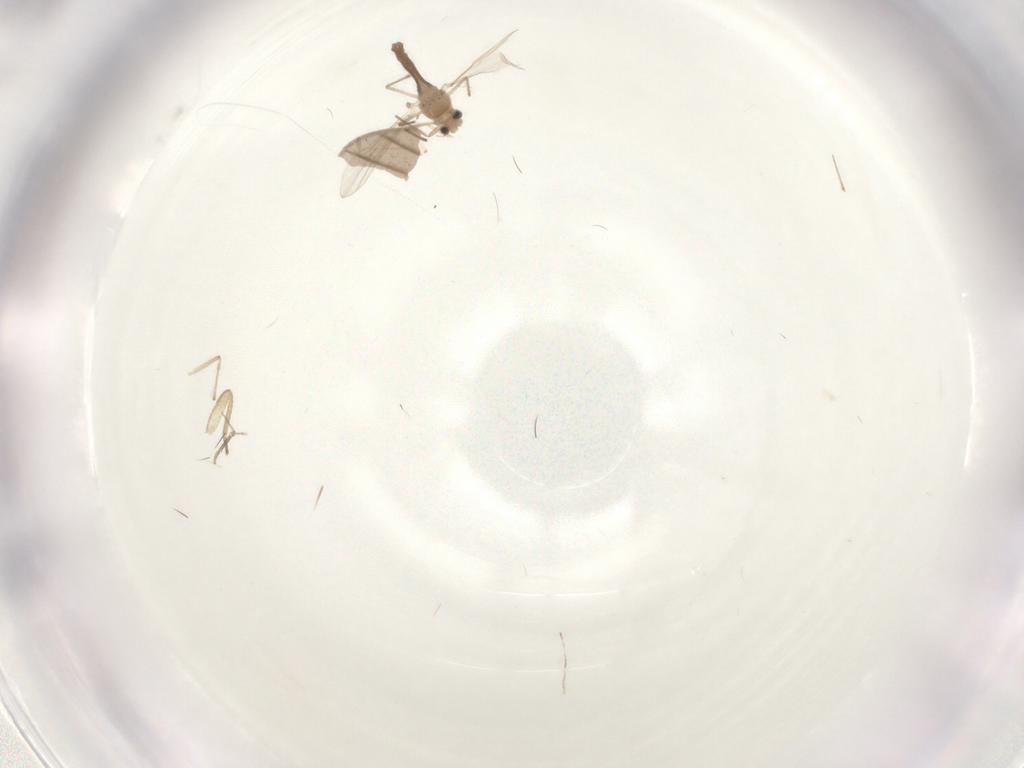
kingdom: Animalia
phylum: Arthropoda
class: Insecta
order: Diptera
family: Chironomidae
